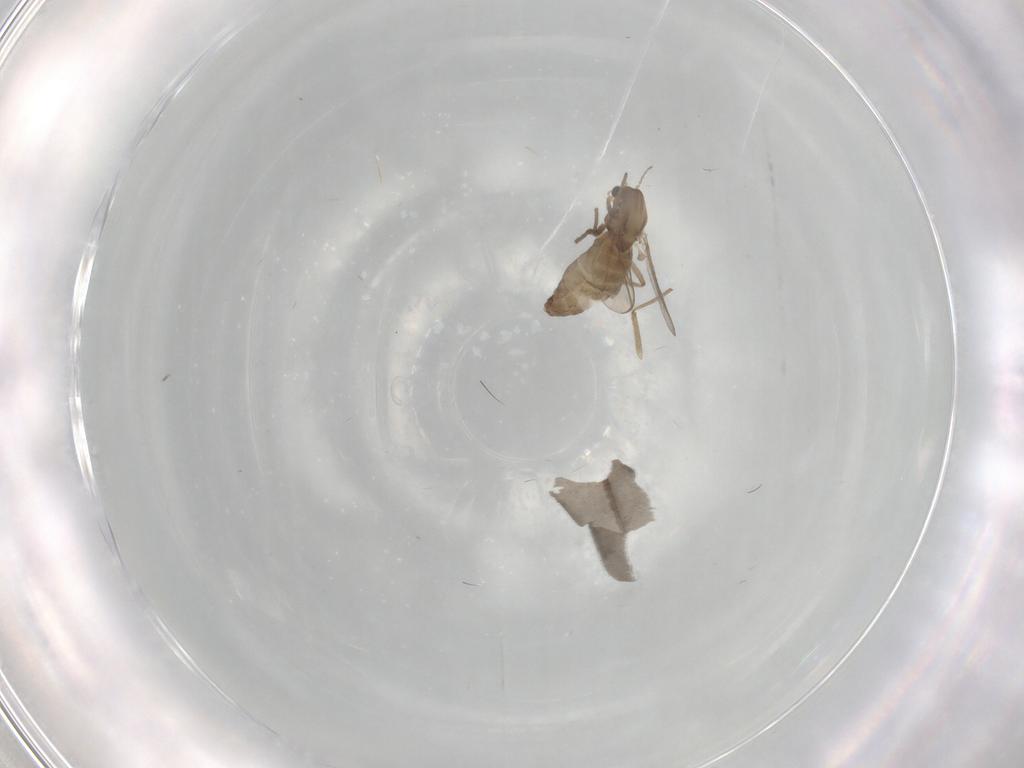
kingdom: Animalia
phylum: Arthropoda
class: Insecta
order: Diptera
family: Chironomidae
